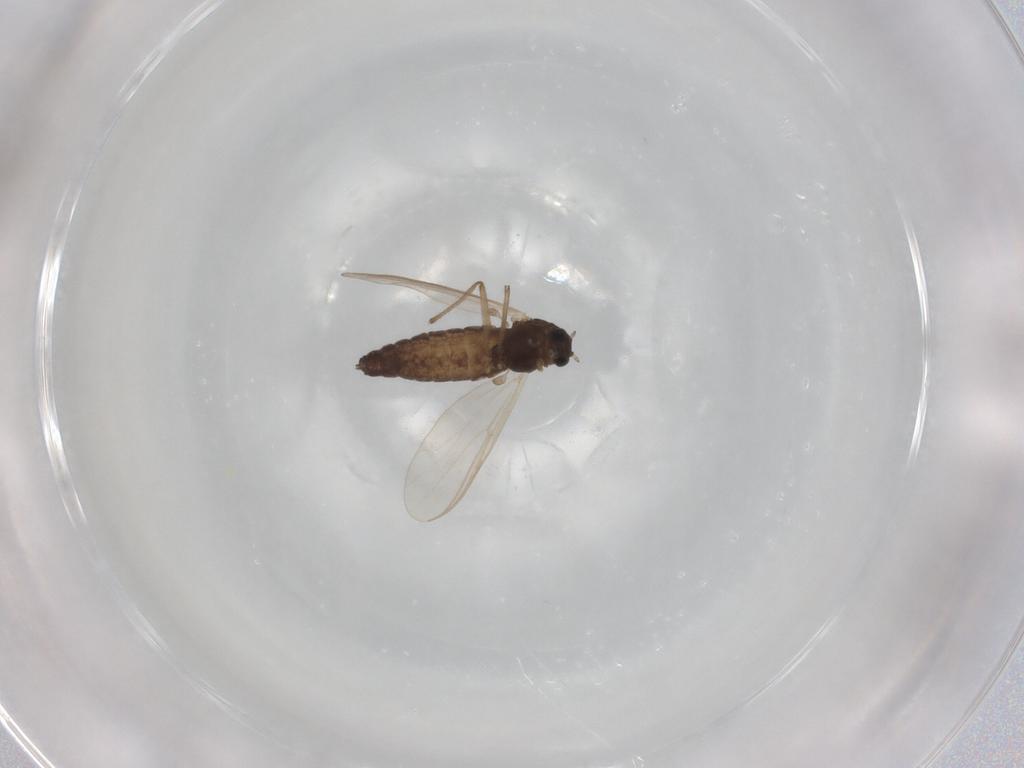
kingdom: Animalia
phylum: Arthropoda
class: Insecta
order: Diptera
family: Chironomidae
